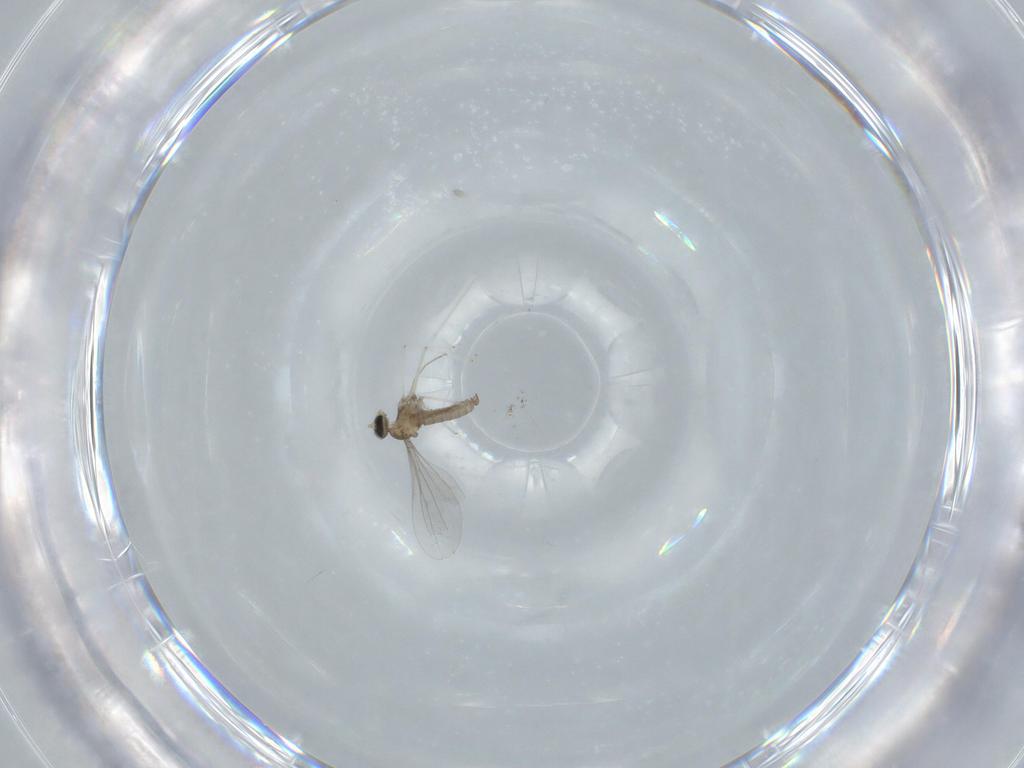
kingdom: Animalia
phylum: Arthropoda
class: Insecta
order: Diptera
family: Cecidomyiidae
